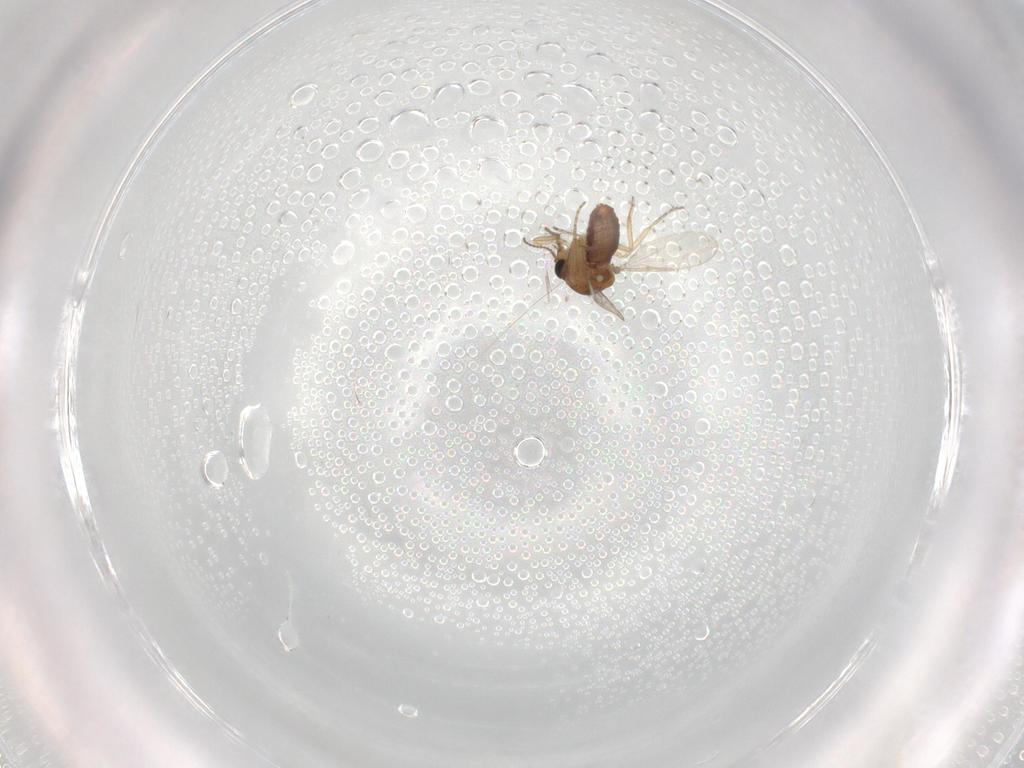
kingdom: Animalia
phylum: Arthropoda
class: Insecta
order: Diptera
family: Ceratopogonidae
